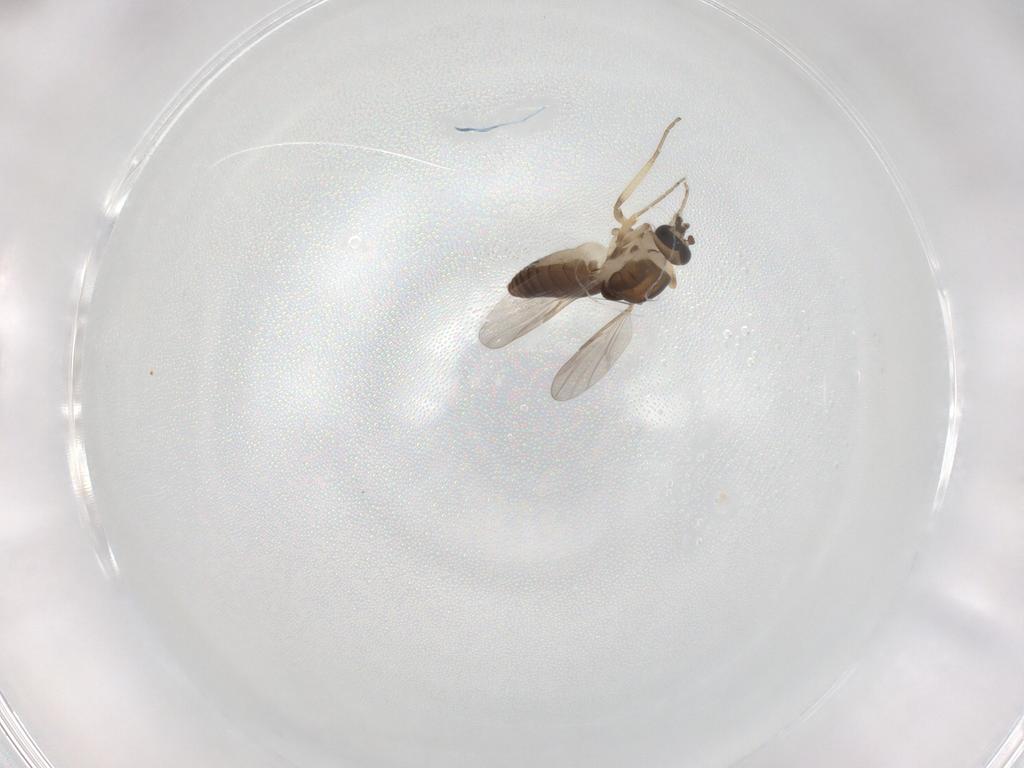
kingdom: Animalia
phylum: Arthropoda
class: Insecta
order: Diptera
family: Ceratopogonidae
